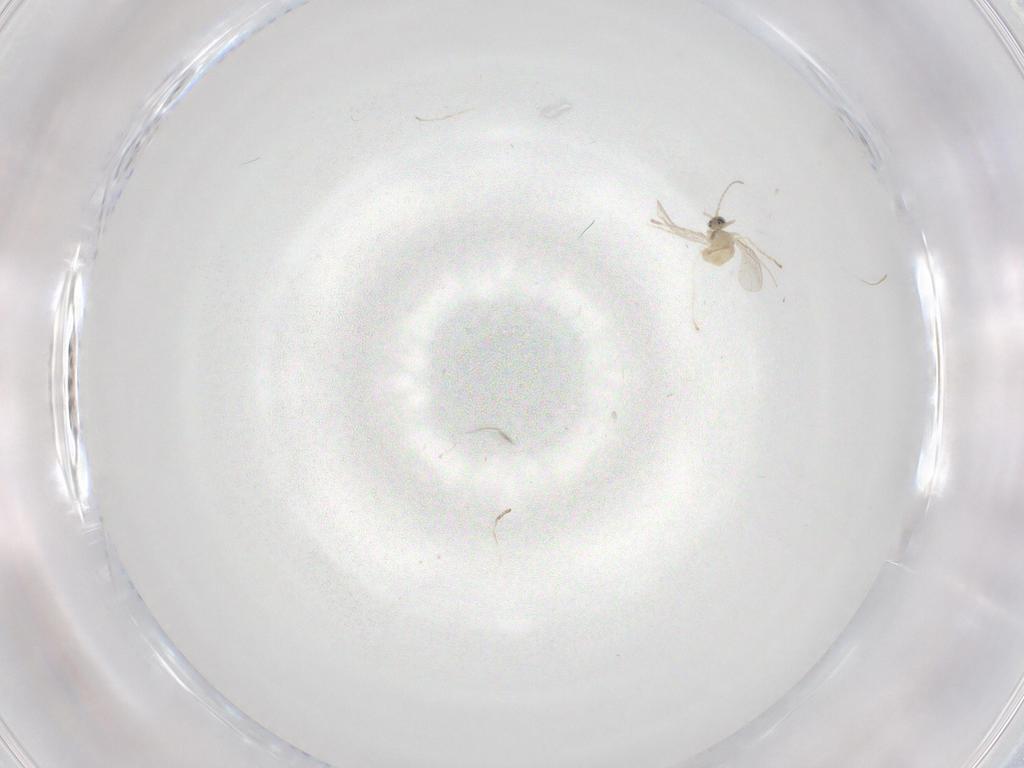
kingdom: Animalia
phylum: Arthropoda
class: Insecta
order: Diptera
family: Cecidomyiidae
